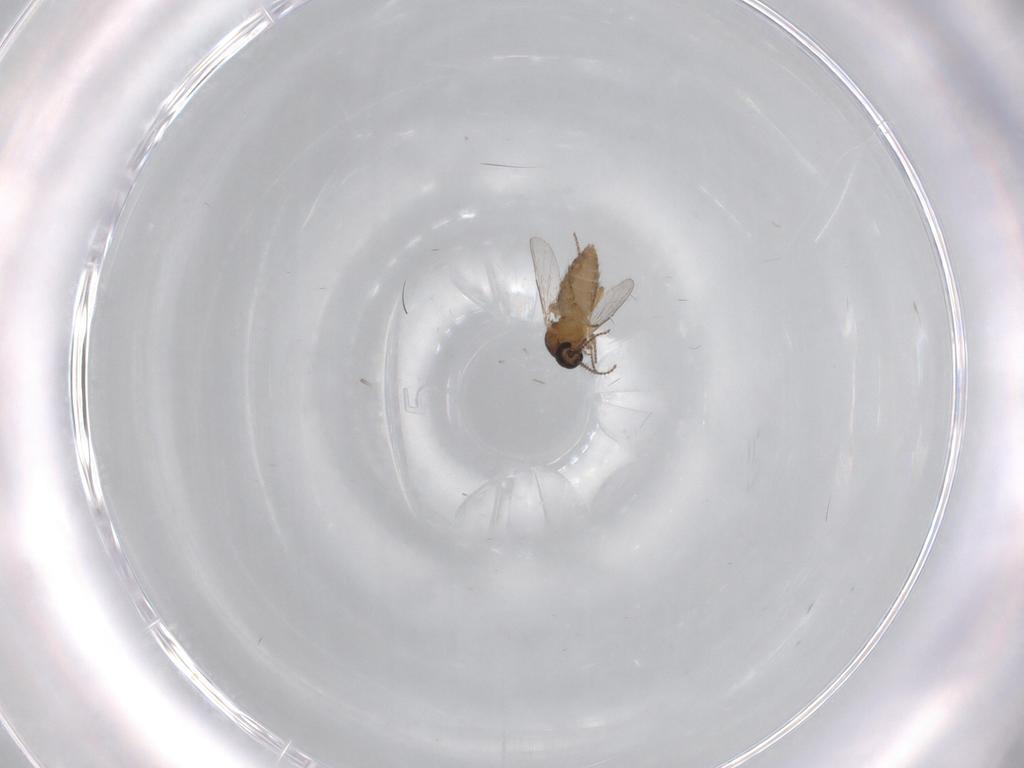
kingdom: Animalia
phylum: Arthropoda
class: Insecta
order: Diptera
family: Ceratopogonidae
